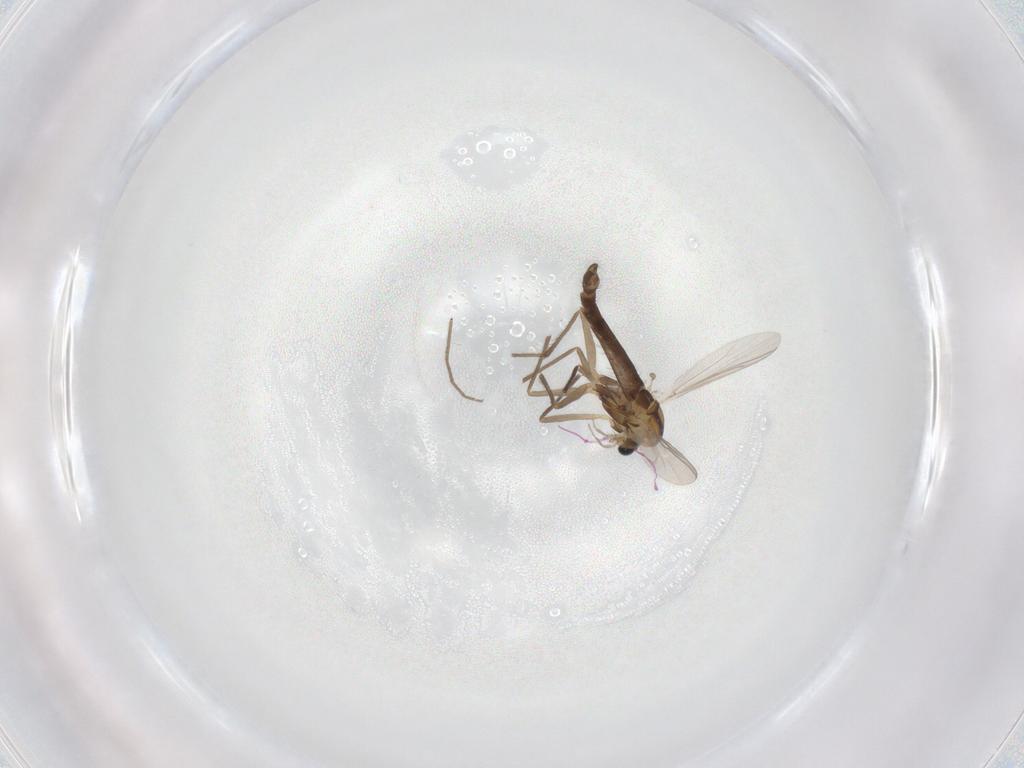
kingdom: Animalia
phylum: Arthropoda
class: Insecta
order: Diptera
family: Chironomidae
